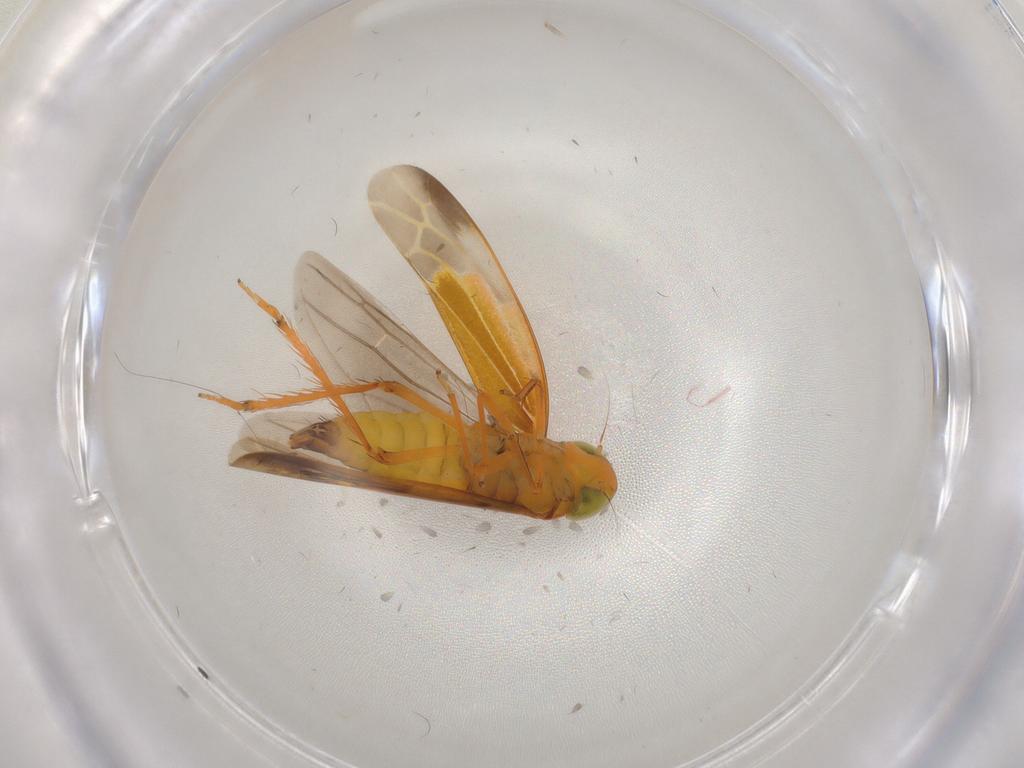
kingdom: Animalia
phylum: Arthropoda
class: Insecta
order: Hemiptera
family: Cicadellidae
